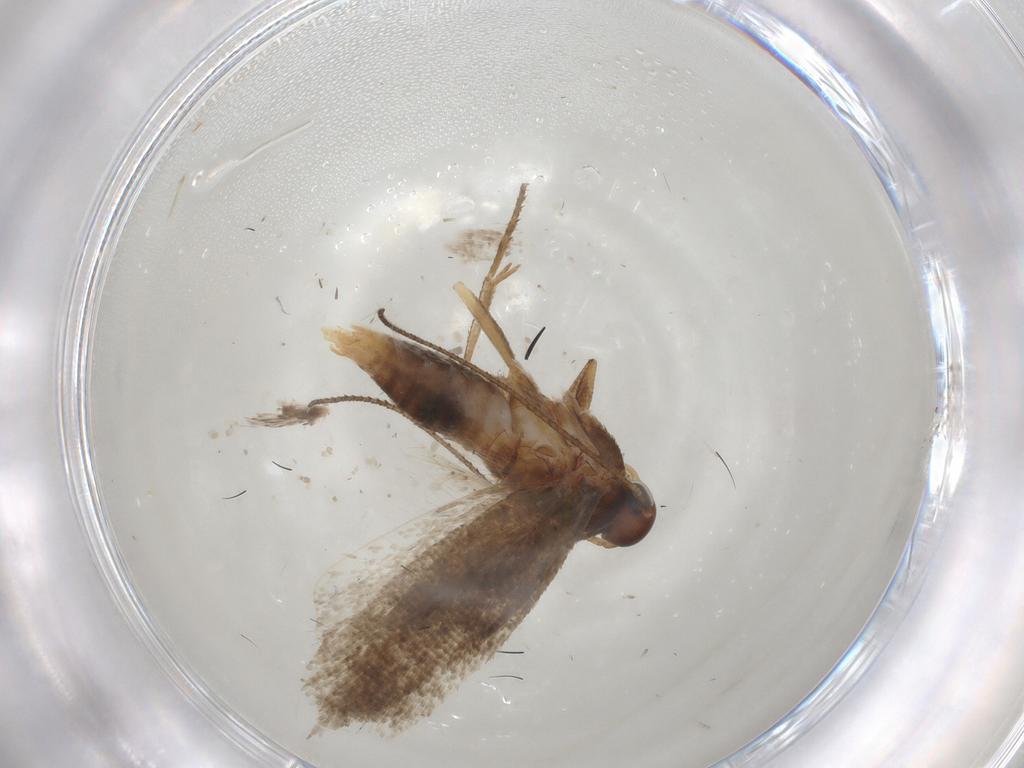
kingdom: Animalia
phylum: Arthropoda
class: Insecta
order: Lepidoptera
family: Gelechiidae
